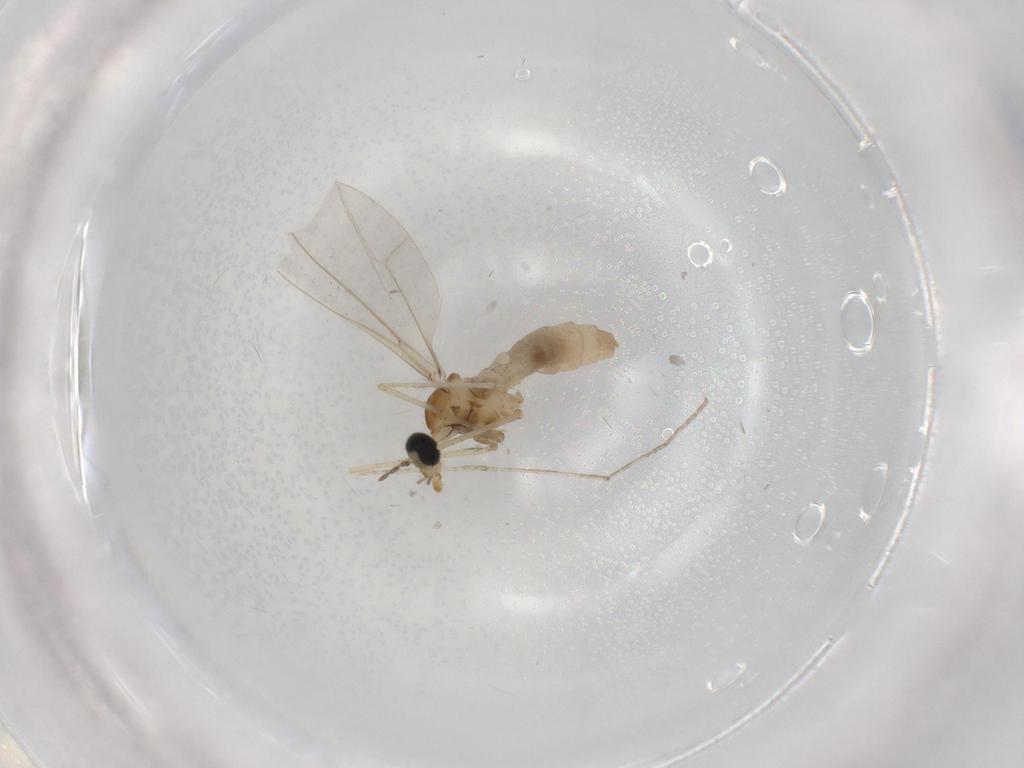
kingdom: Animalia
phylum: Arthropoda
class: Insecta
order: Diptera
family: Sphaeroceridae
